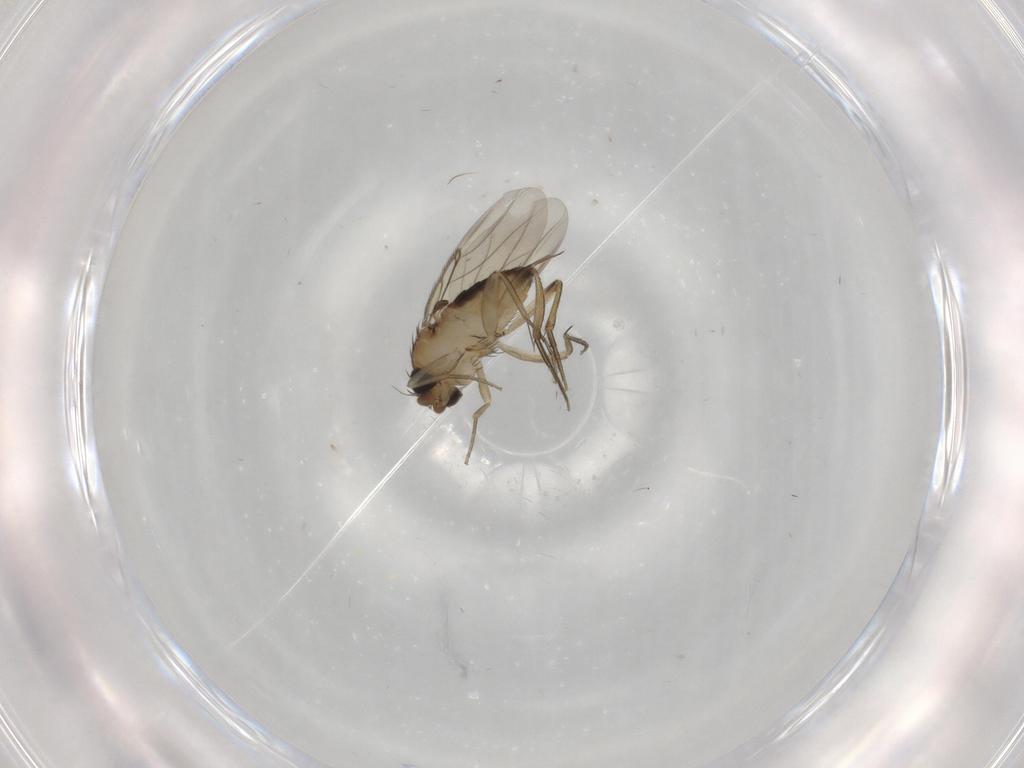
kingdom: Animalia
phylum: Arthropoda
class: Insecta
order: Diptera
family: Phoridae
